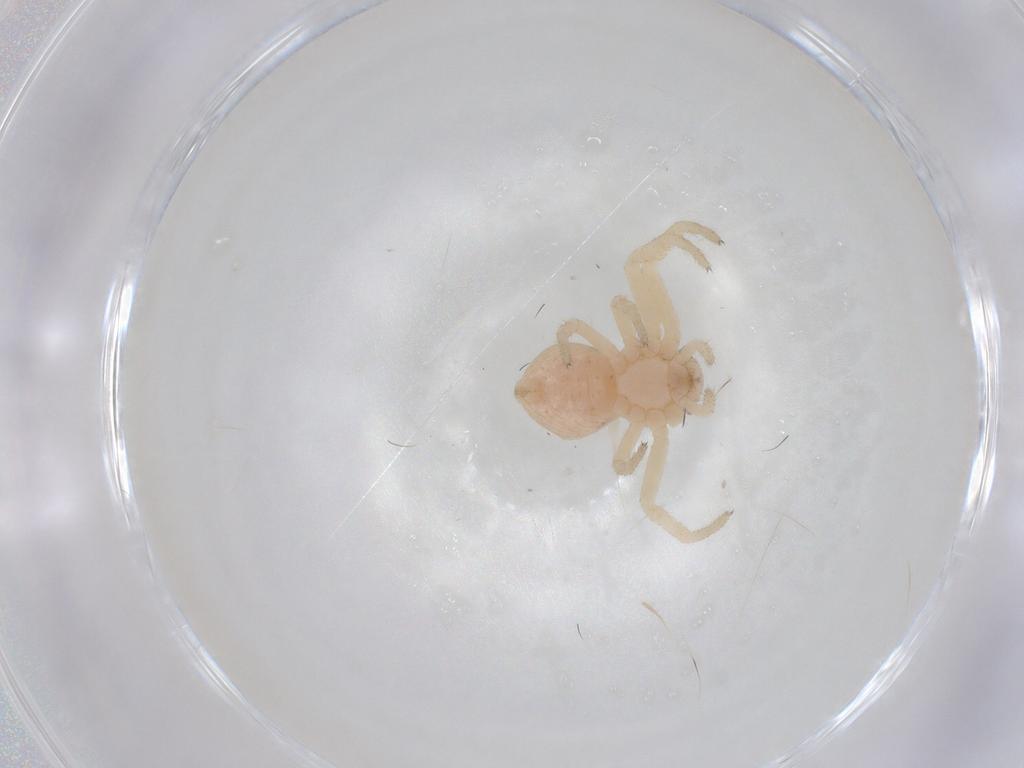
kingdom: Animalia
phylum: Arthropoda
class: Arachnida
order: Araneae
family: Thomisidae
